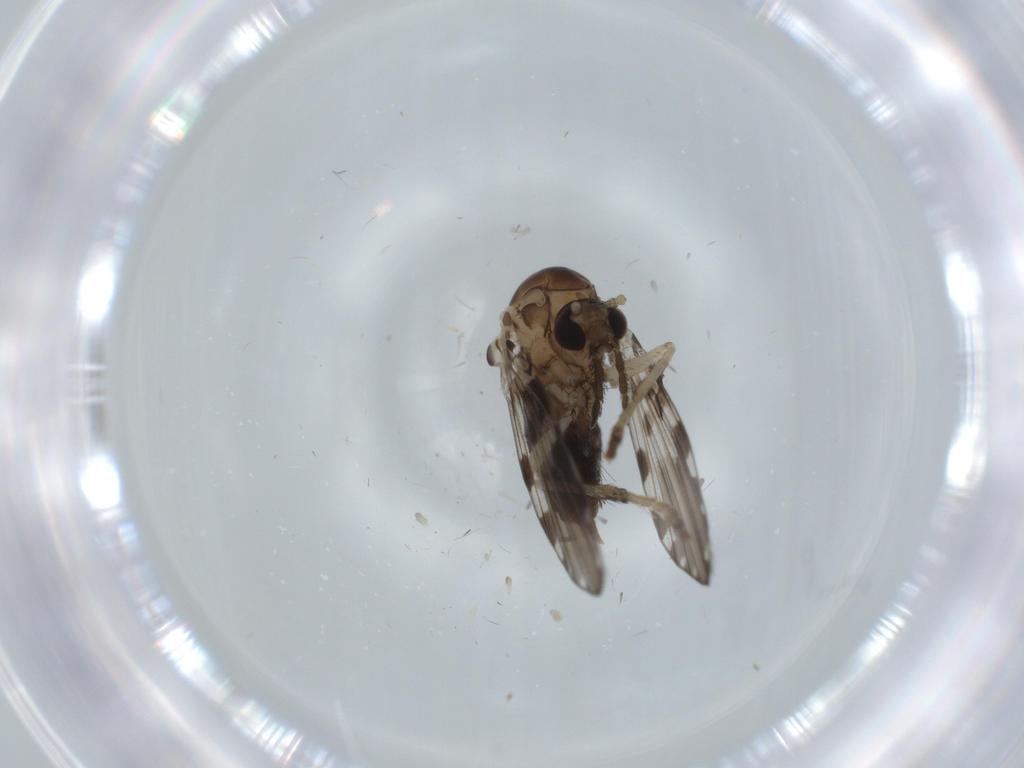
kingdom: Animalia
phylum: Arthropoda
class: Insecta
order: Diptera
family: Psychodidae
